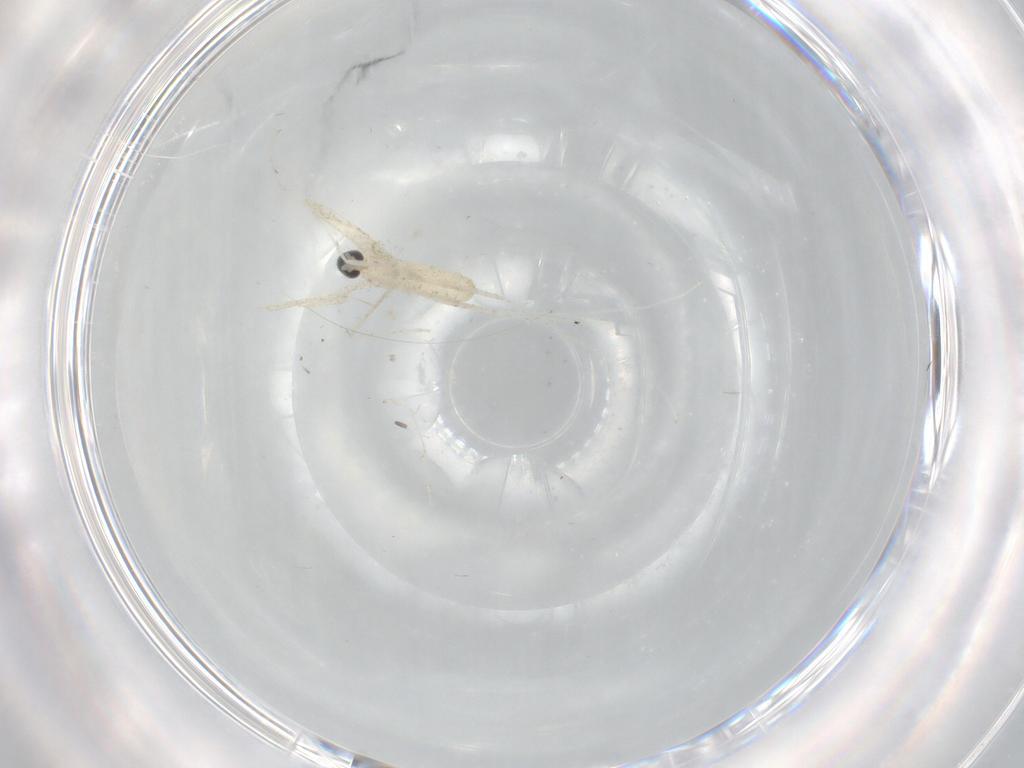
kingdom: Animalia
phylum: Arthropoda
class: Insecta
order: Diptera
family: Cecidomyiidae
